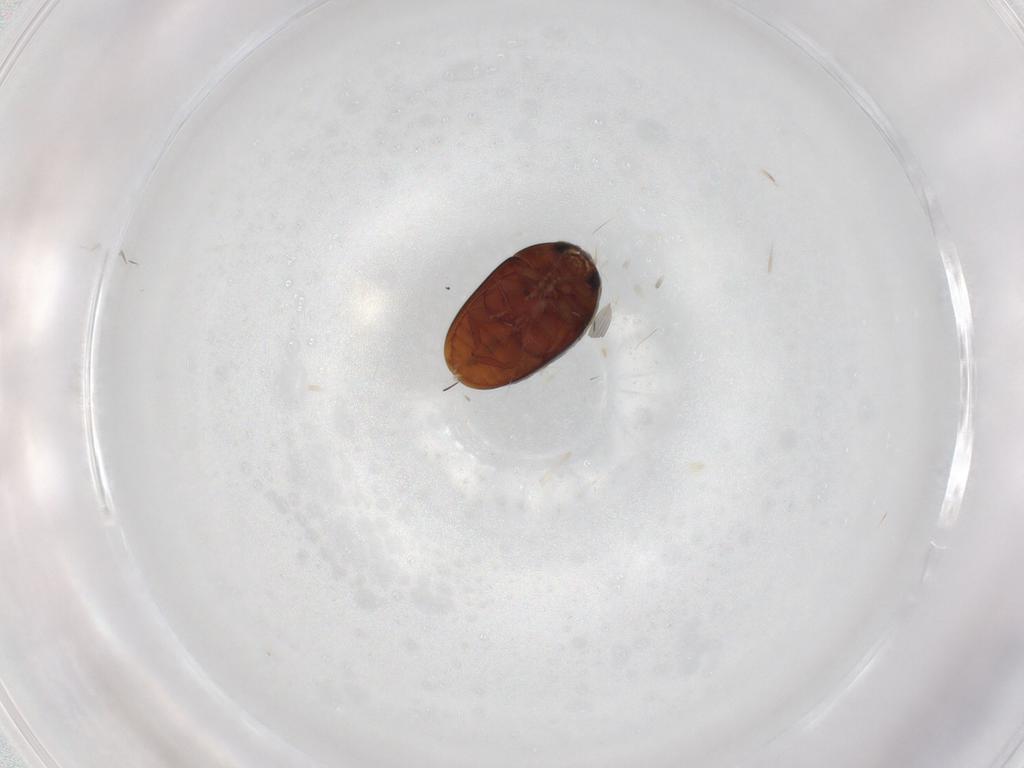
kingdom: Animalia
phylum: Arthropoda
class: Insecta
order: Coleoptera
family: Phalacridae
